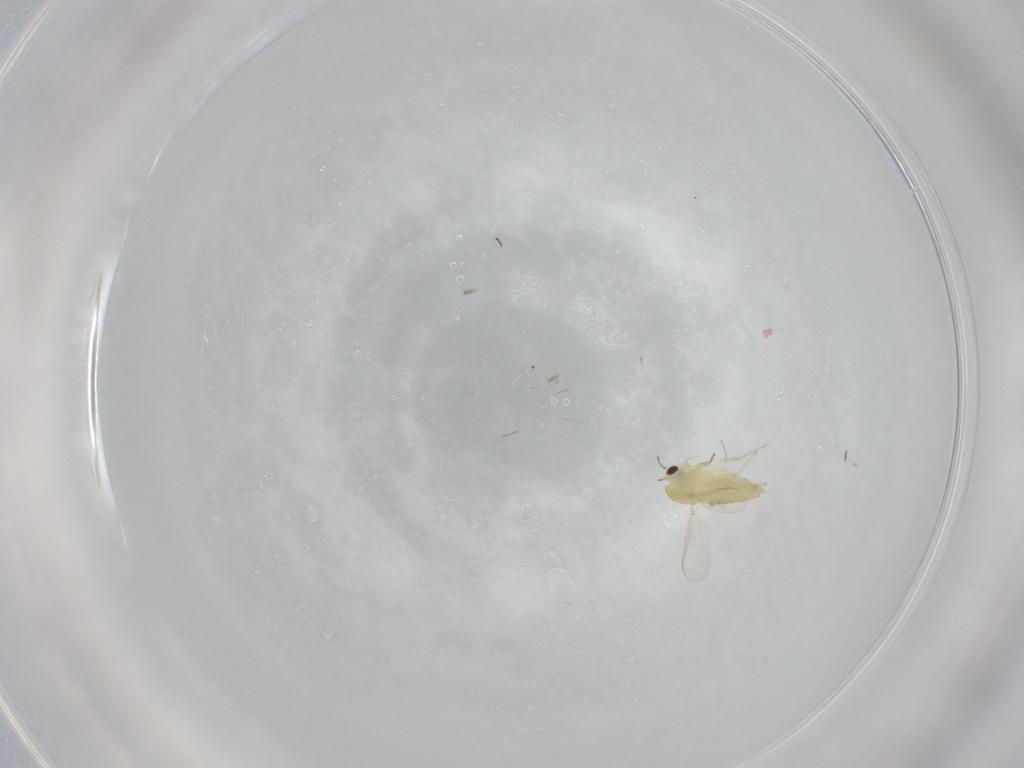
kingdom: Animalia
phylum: Arthropoda
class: Insecta
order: Diptera
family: Chironomidae
